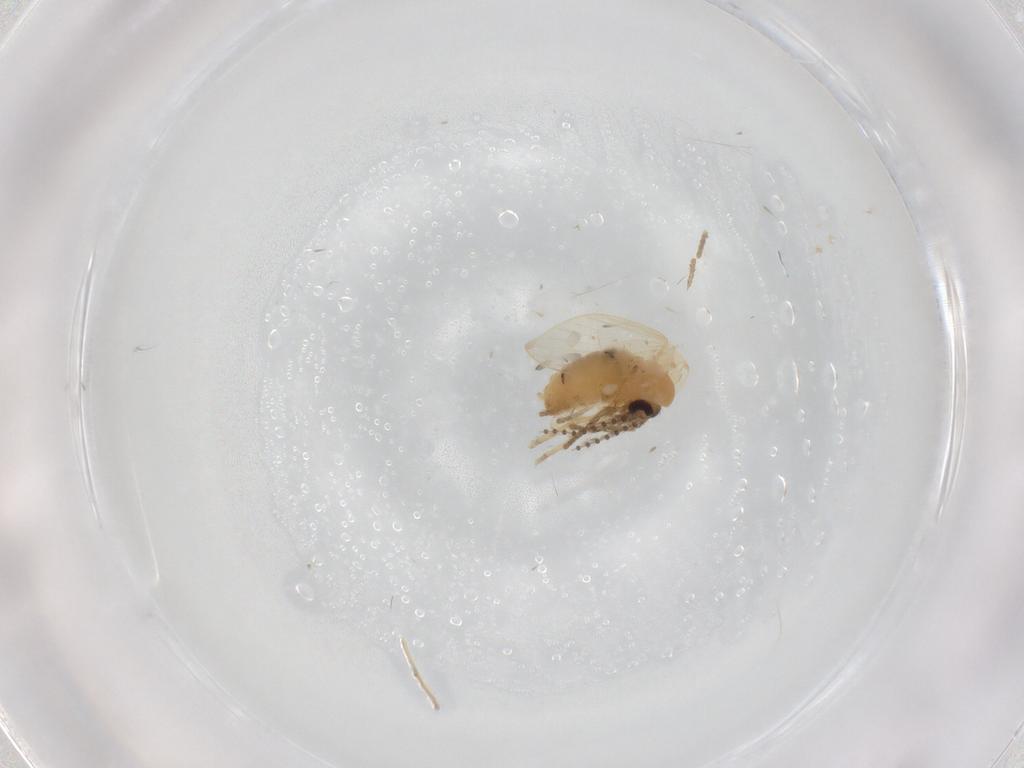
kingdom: Animalia
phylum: Arthropoda
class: Insecta
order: Diptera
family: Psychodidae
